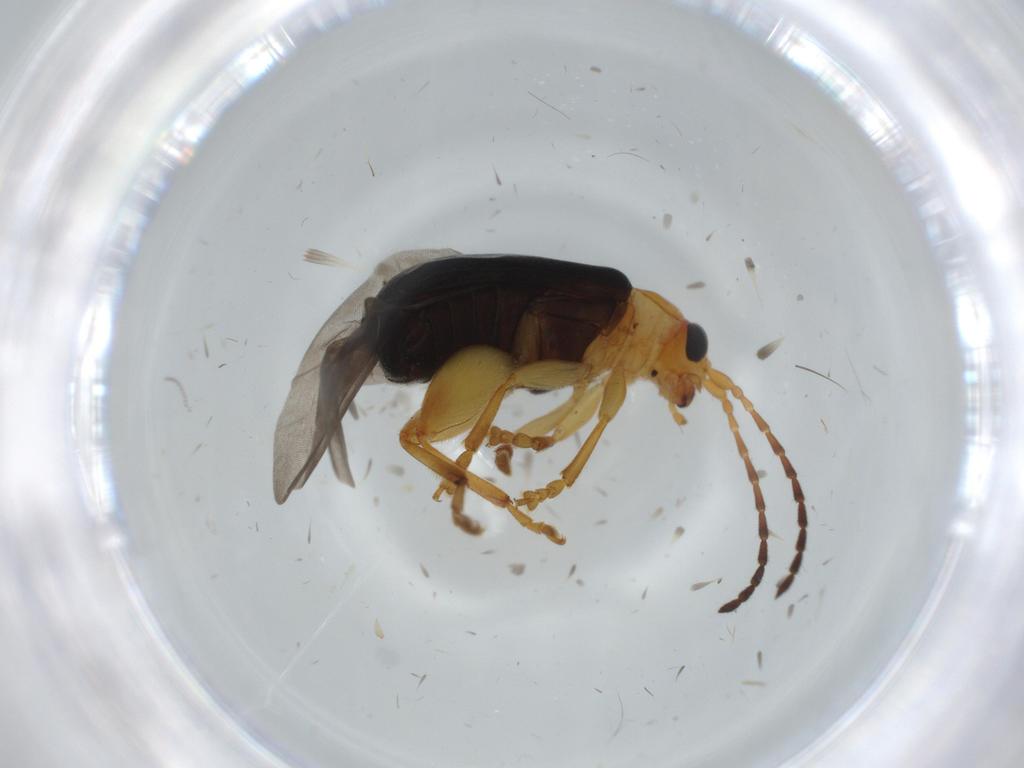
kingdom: Animalia
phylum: Arthropoda
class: Insecta
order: Coleoptera
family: Chrysomelidae
